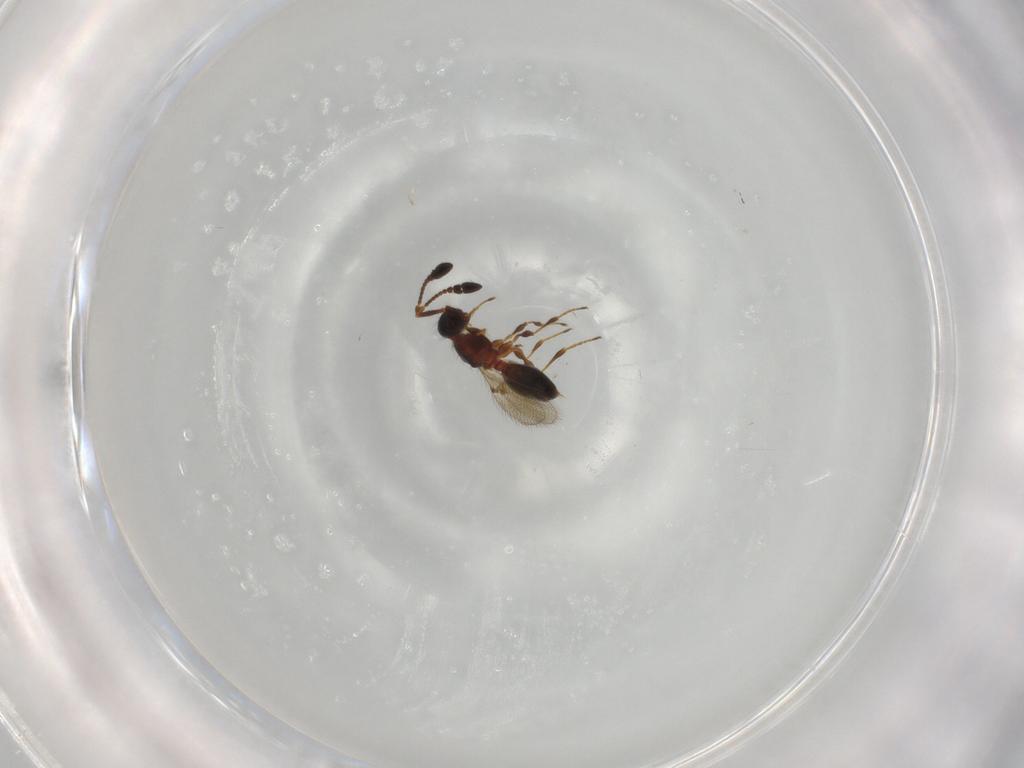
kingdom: Animalia
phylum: Arthropoda
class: Insecta
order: Hymenoptera
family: Diapriidae
